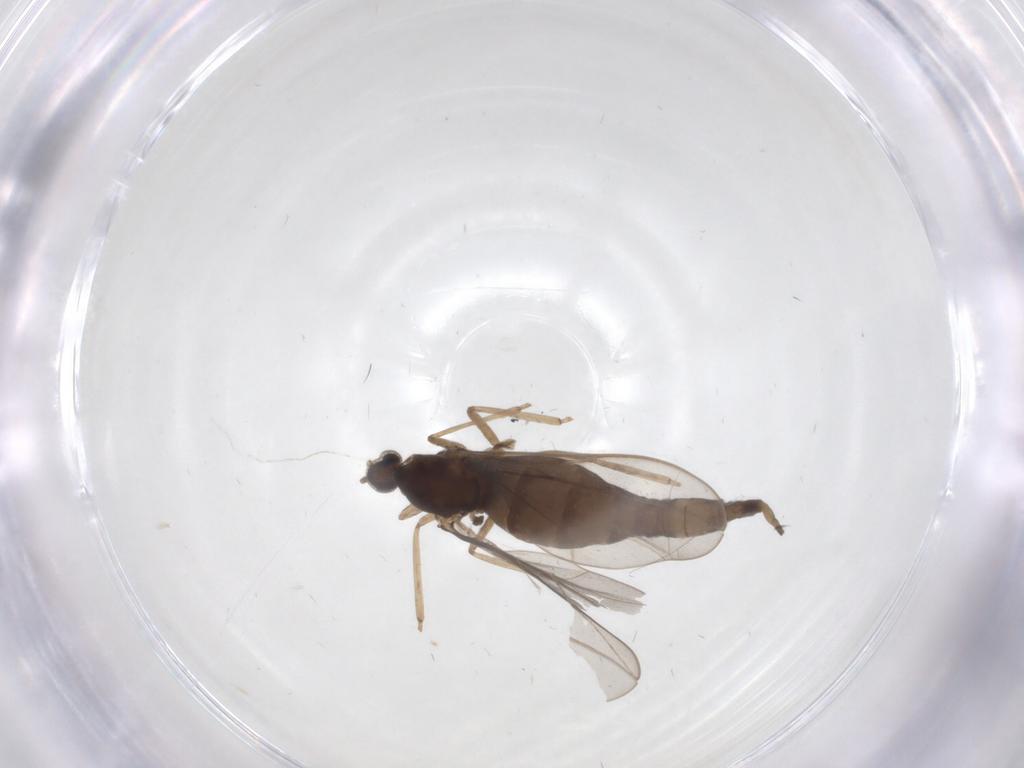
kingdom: Animalia
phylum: Arthropoda
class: Insecta
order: Diptera
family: Cecidomyiidae
